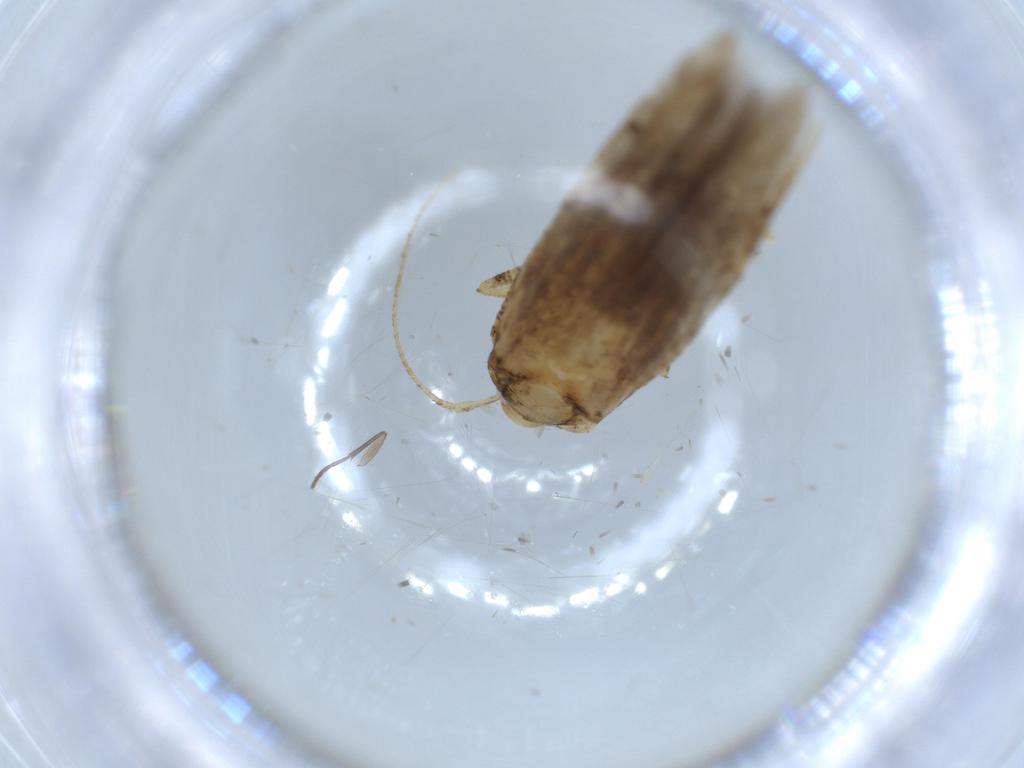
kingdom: Animalia
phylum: Arthropoda
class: Insecta
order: Lepidoptera
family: Cosmopterigidae
